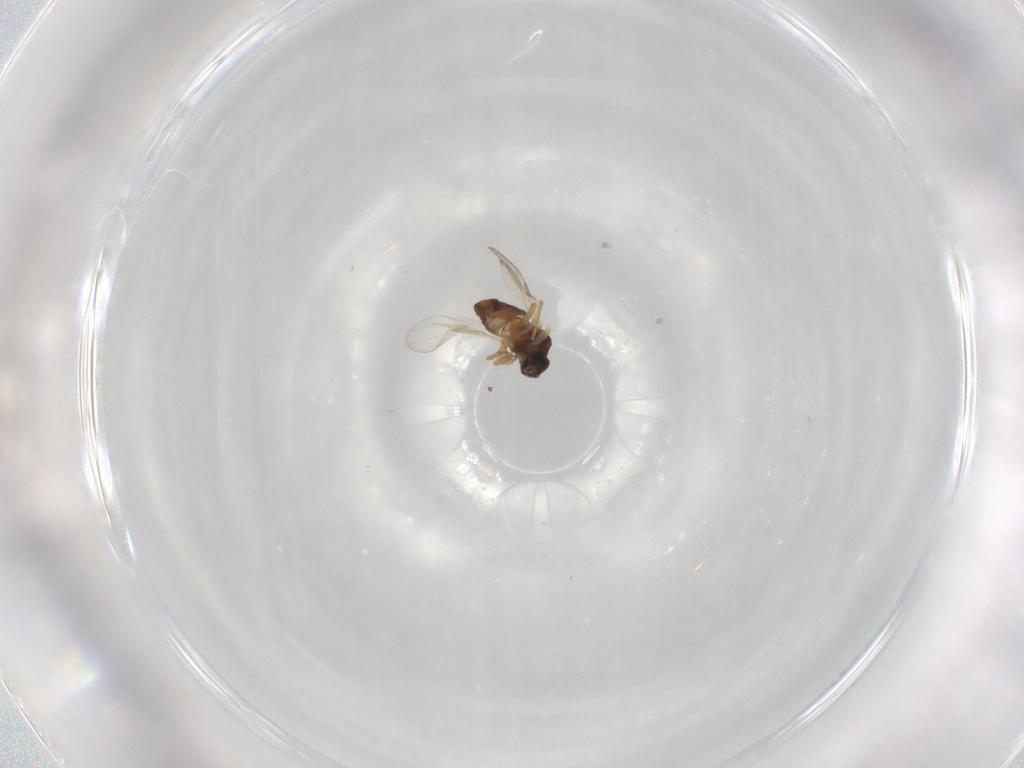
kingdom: Animalia
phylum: Arthropoda
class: Insecta
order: Diptera
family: Ceratopogonidae
